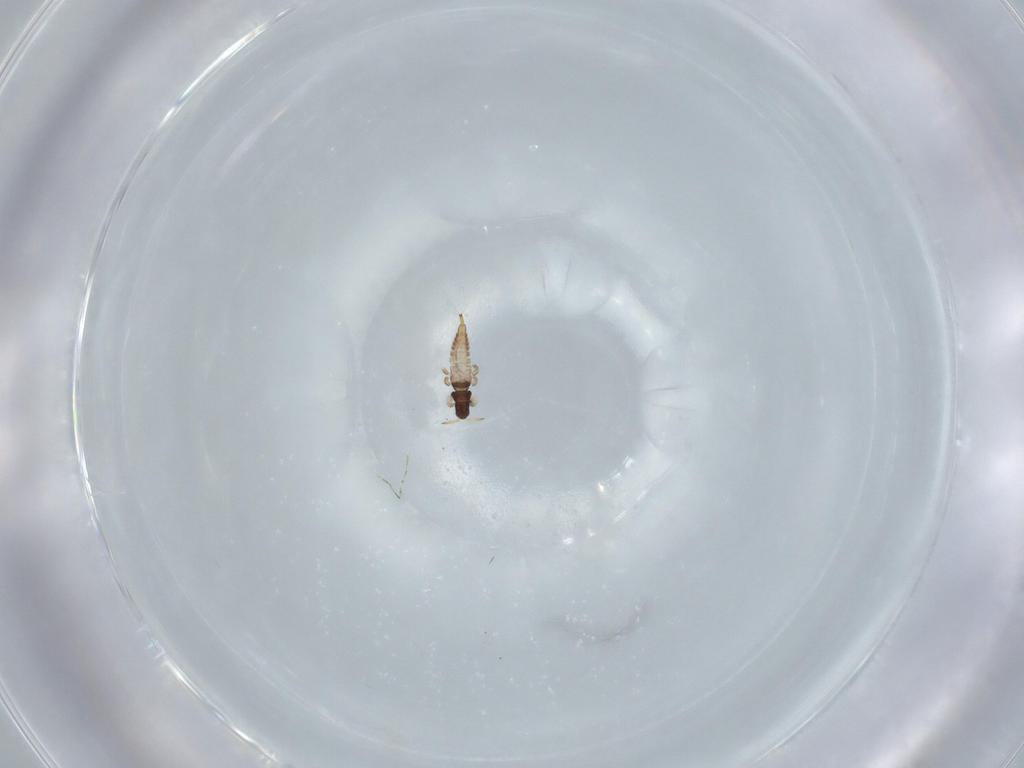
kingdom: Animalia
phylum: Arthropoda
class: Insecta
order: Thysanoptera
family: Phlaeothripidae
